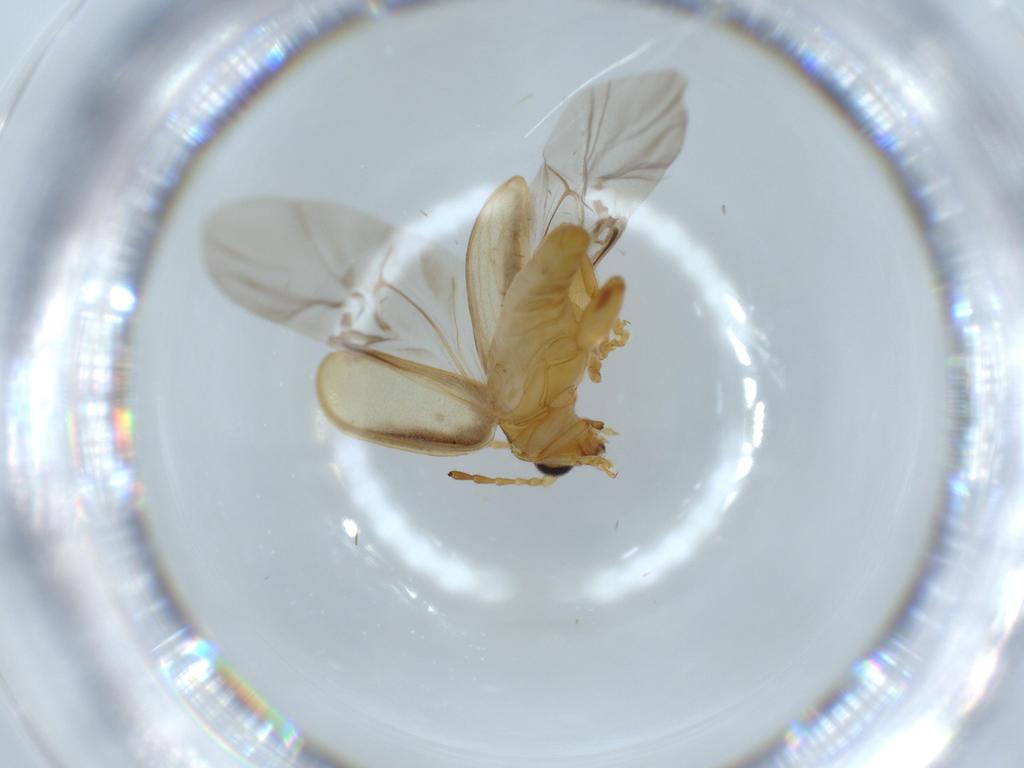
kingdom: Animalia
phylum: Arthropoda
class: Insecta
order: Coleoptera
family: Chrysomelidae
